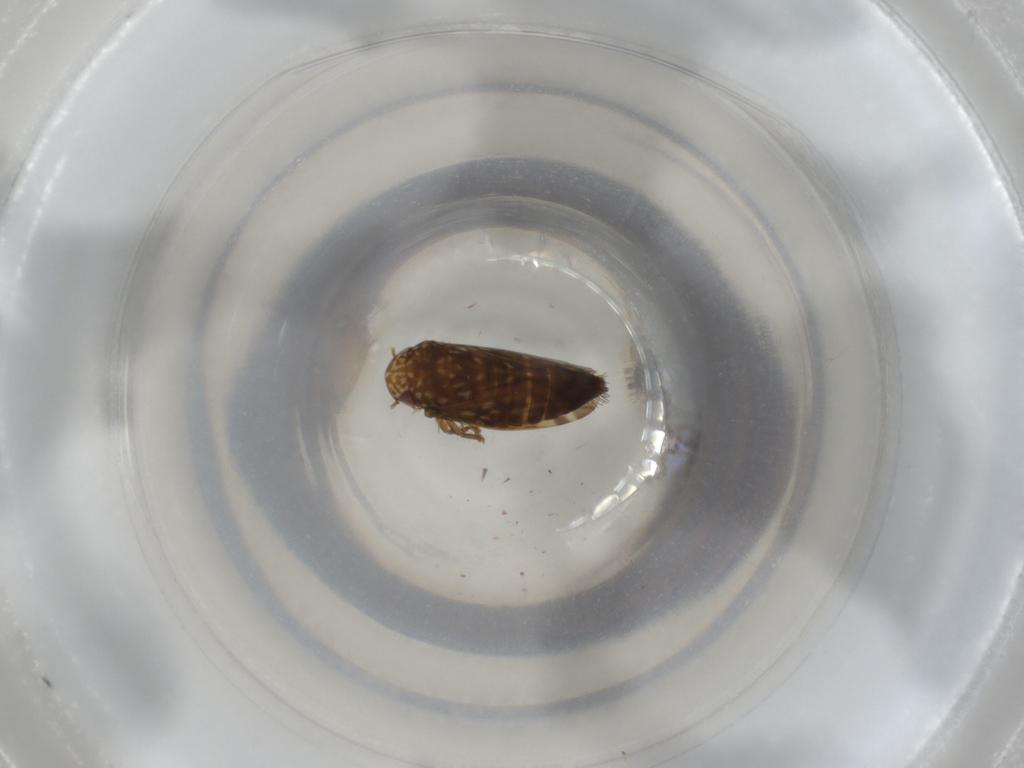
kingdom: Animalia
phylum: Arthropoda
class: Insecta
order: Hemiptera
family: Cicadellidae
